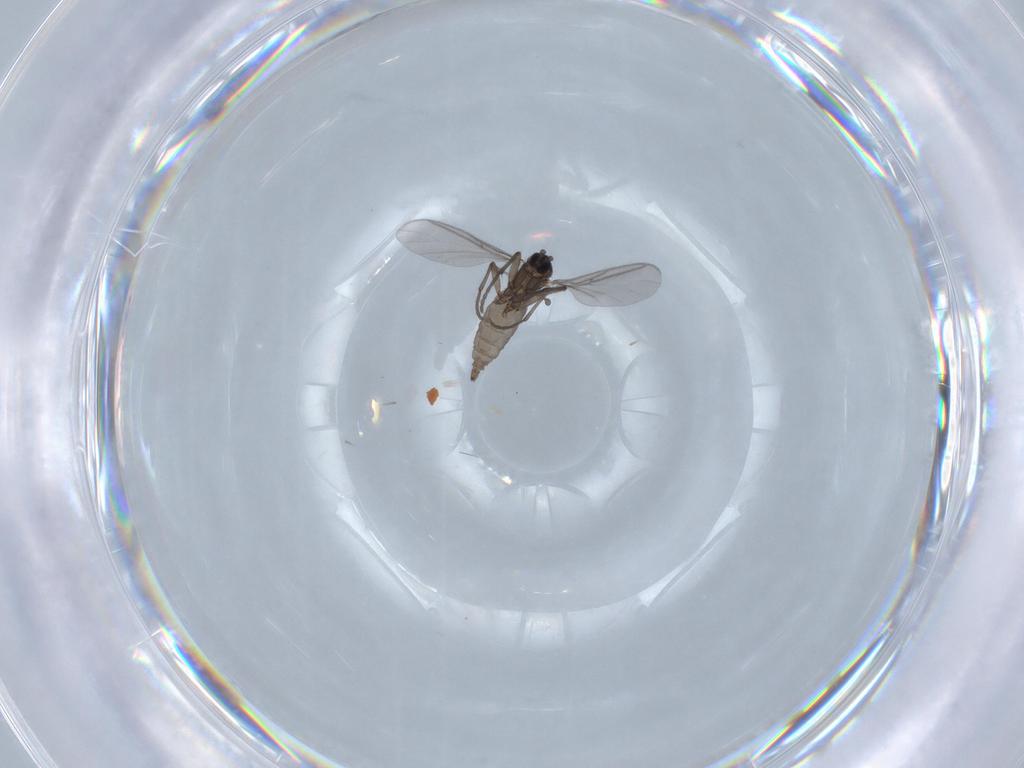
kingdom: Animalia
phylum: Arthropoda
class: Insecta
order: Diptera
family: Sciaridae
